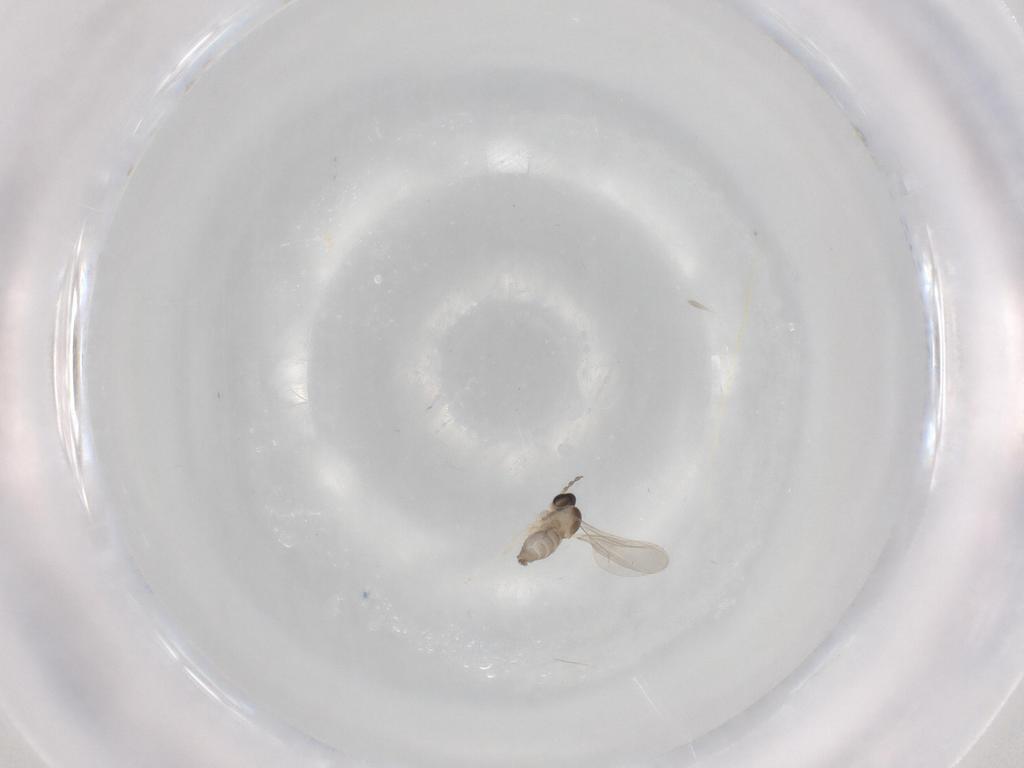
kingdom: Animalia
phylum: Arthropoda
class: Insecta
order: Diptera
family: Cecidomyiidae
